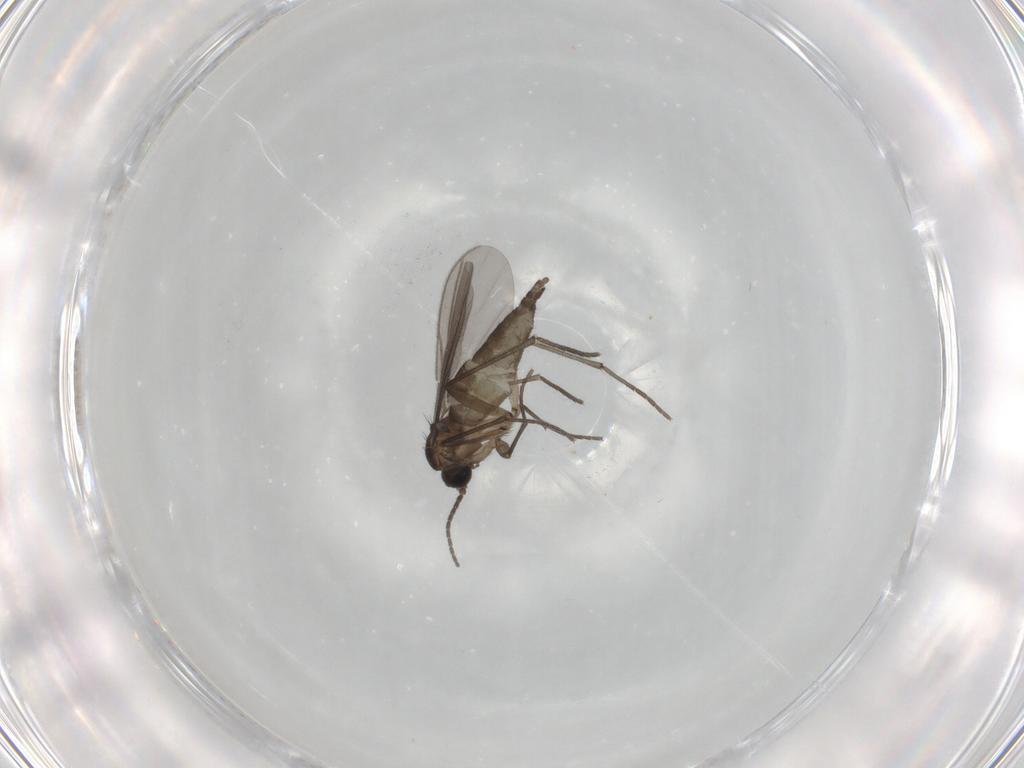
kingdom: Animalia
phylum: Arthropoda
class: Insecta
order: Diptera
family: Sciaridae
